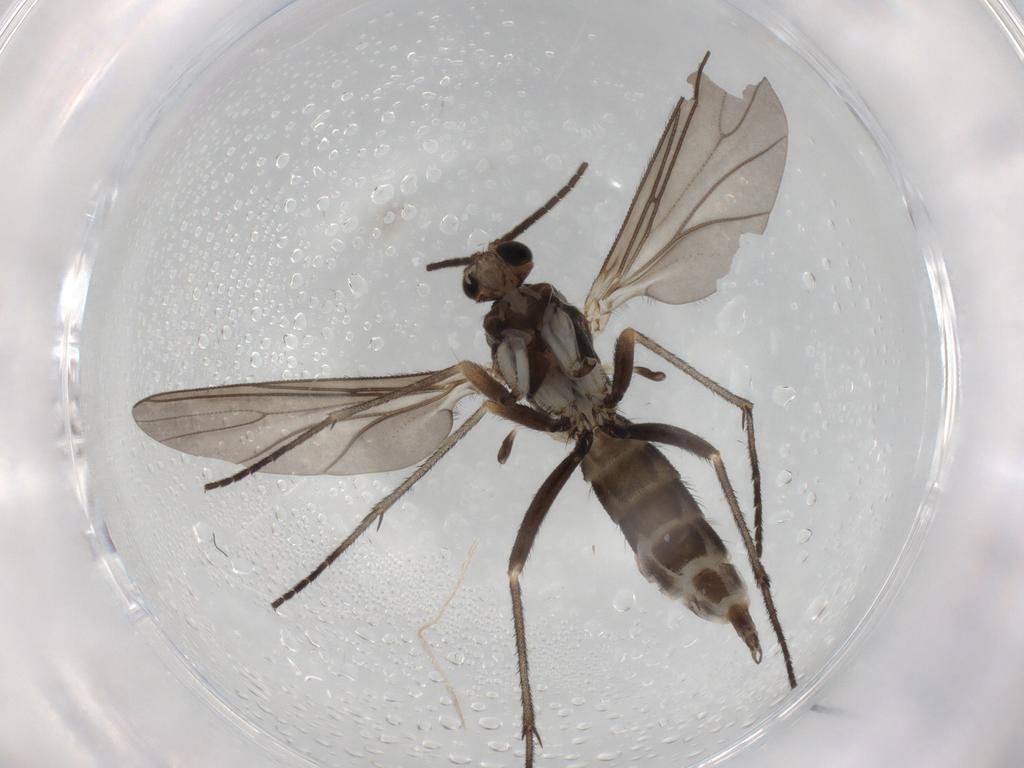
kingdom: Animalia
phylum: Arthropoda
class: Insecta
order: Diptera
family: Sciaridae
